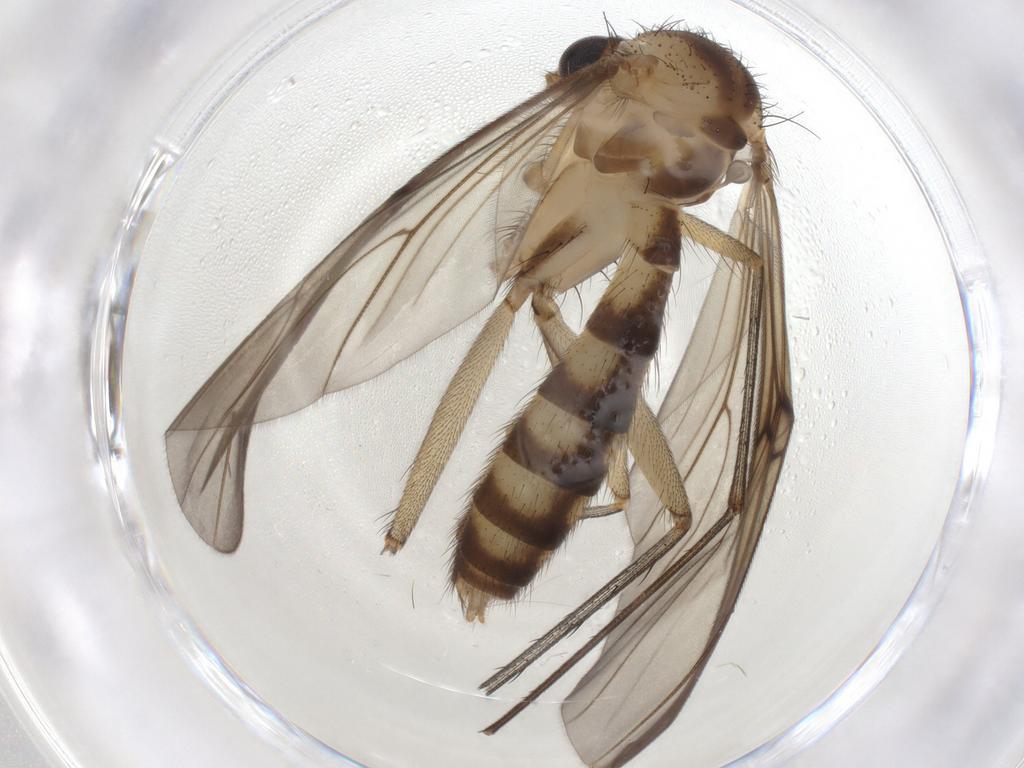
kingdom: Animalia
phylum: Arthropoda
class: Insecta
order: Diptera
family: Mycetophilidae
